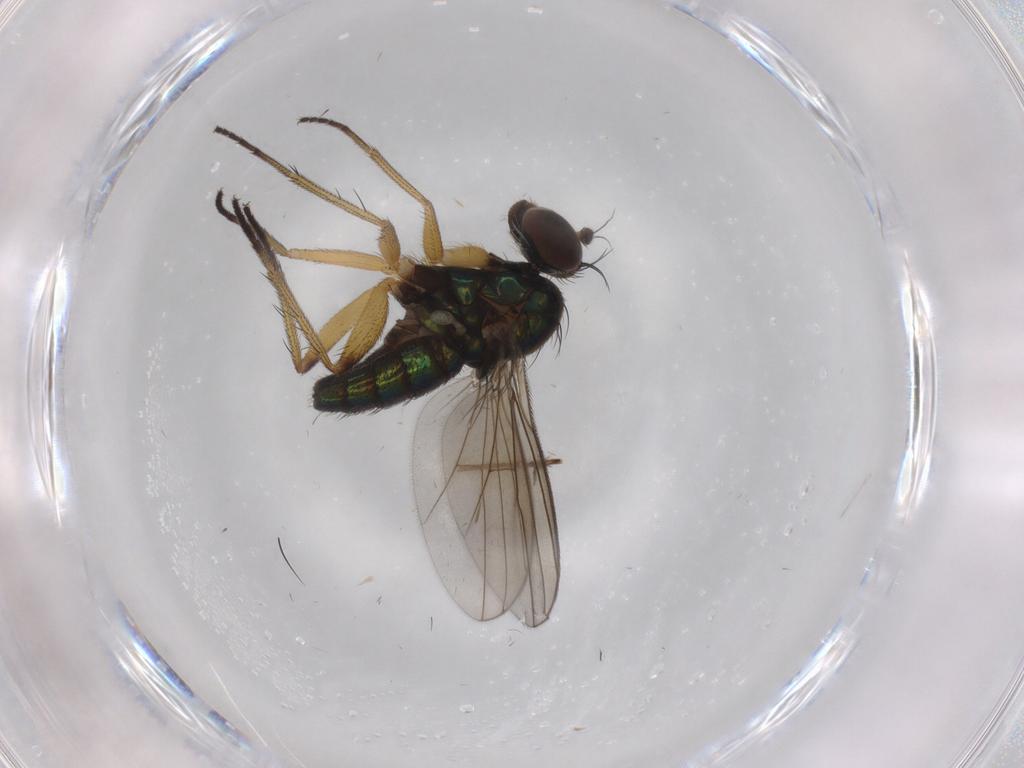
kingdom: Animalia
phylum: Arthropoda
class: Insecta
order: Diptera
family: Dolichopodidae
